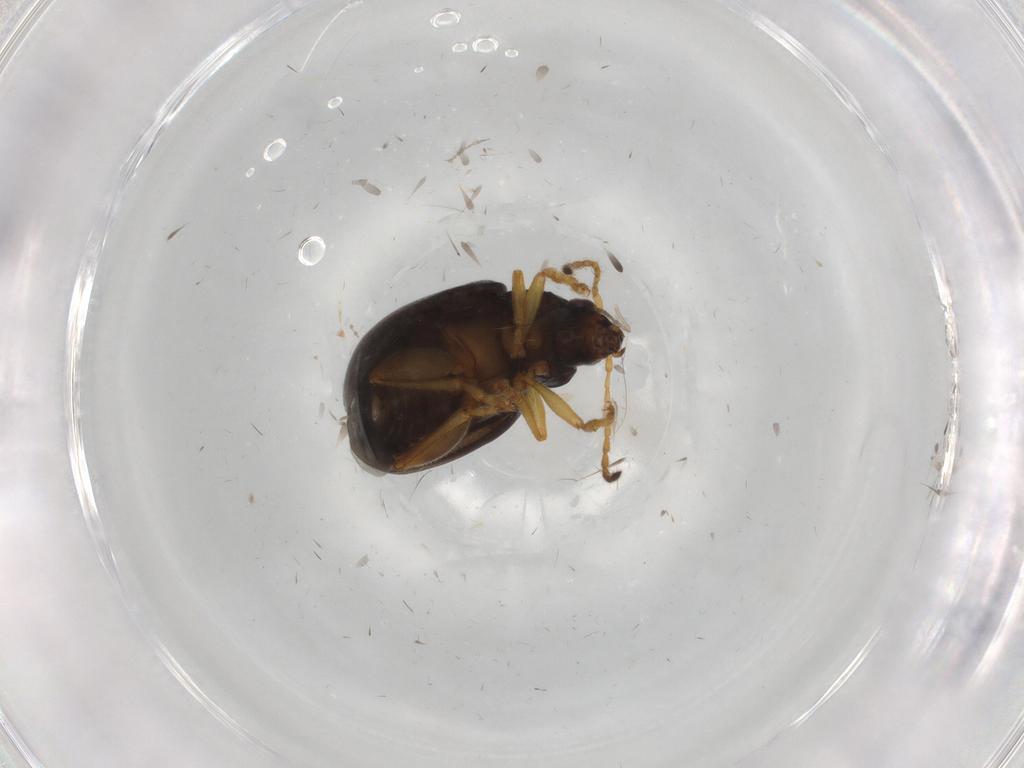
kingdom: Animalia
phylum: Arthropoda
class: Insecta
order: Coleoptera
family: Chrysomelidae
